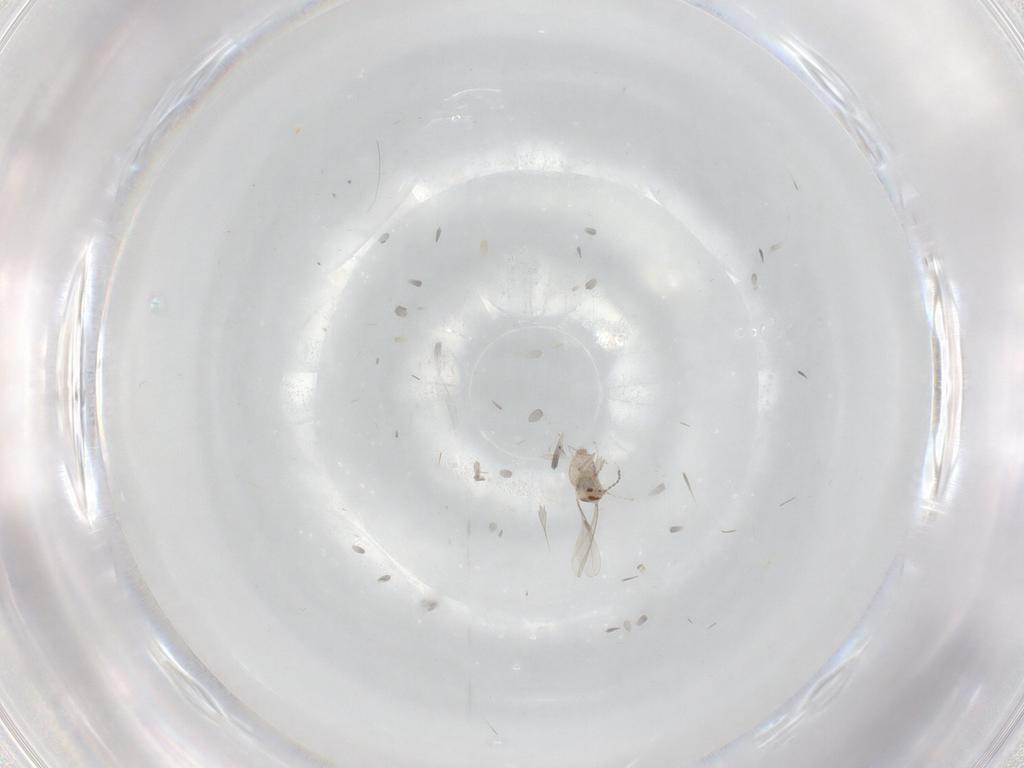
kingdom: Animalia
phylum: Arthropoda
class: Insecta
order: Diptera
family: Cecidomyiidae
